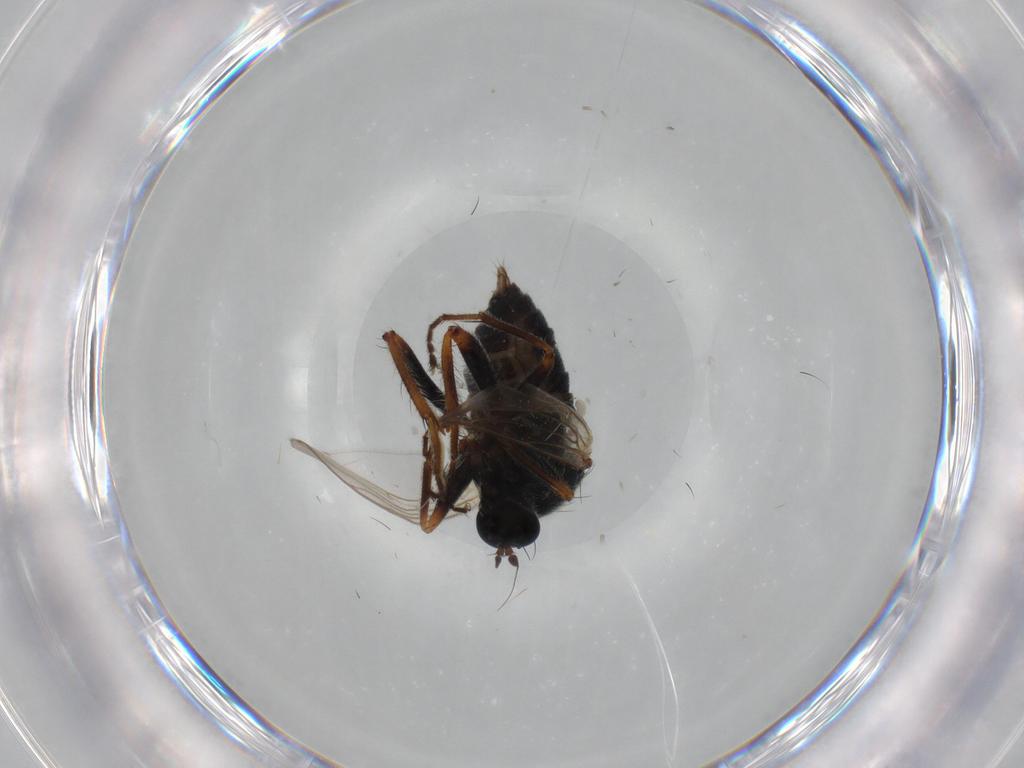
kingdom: Animalia
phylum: Arthropoda
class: Insecta
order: Diptera
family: Hybotidae
